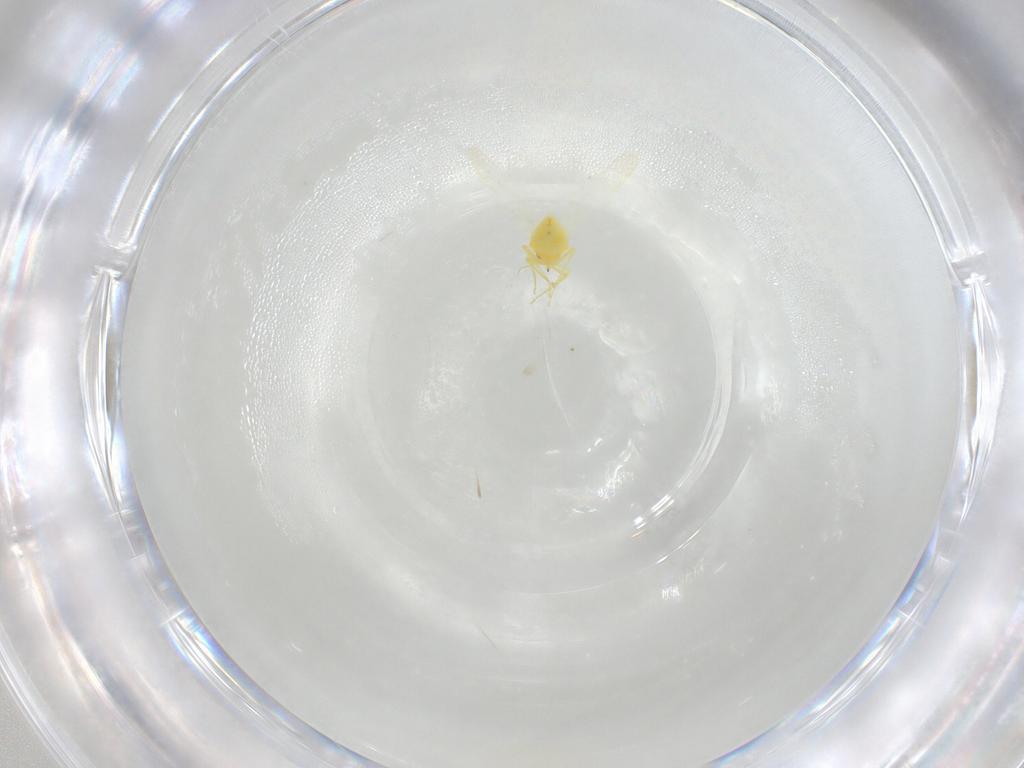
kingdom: Animalia
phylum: Arthropoda
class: Insecta
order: Hemiptera
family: Aleyrodidae
